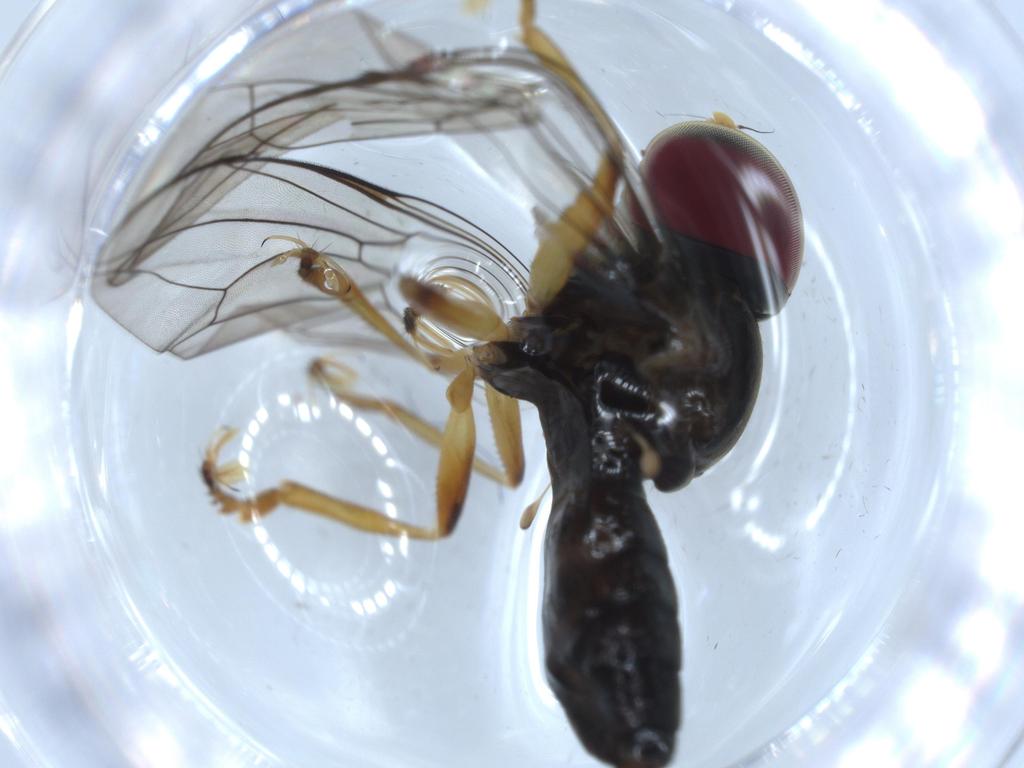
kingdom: Animalia
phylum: Arthropoda
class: Insecta
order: Diptera
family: Pipunculidae
